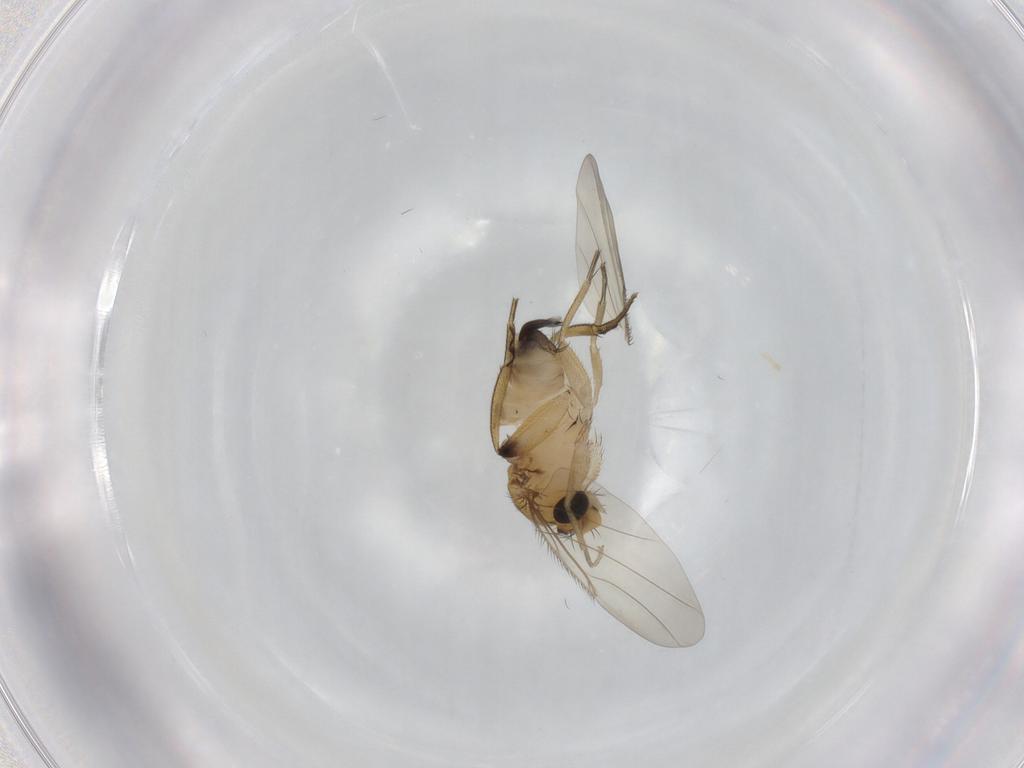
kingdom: Animalia
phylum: Arthropoda
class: Insecta
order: Diptera
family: Phoridae
